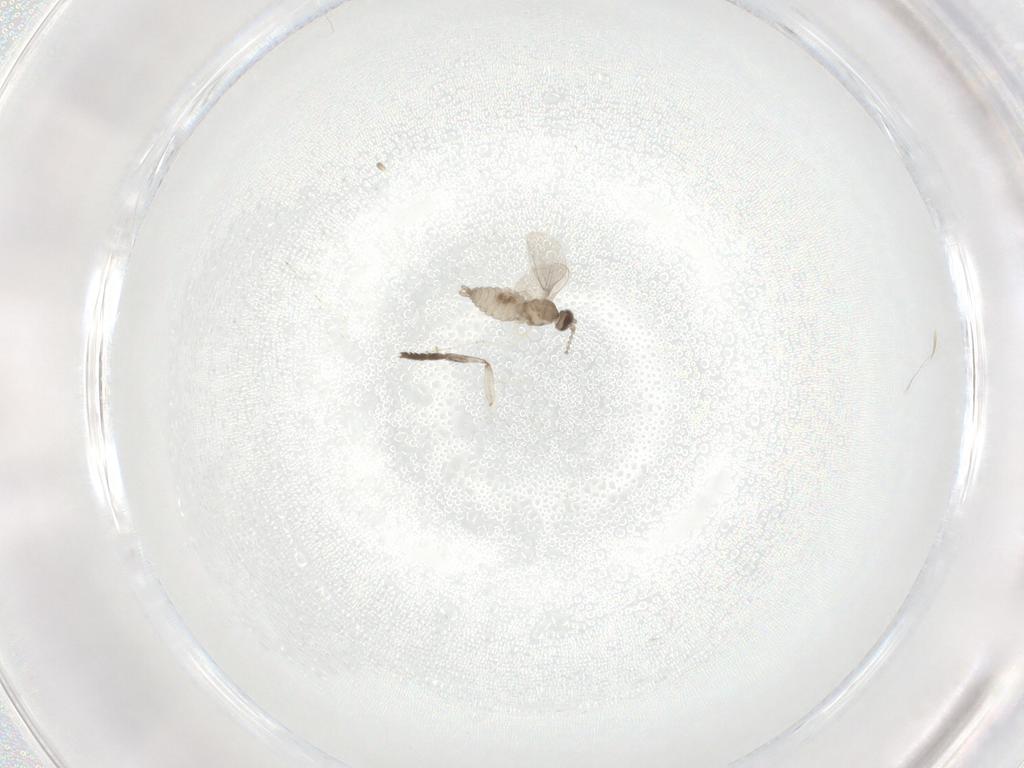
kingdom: Animalia
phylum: Arthropoda
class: Insecta
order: Diptera
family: Cecidomyiidae
